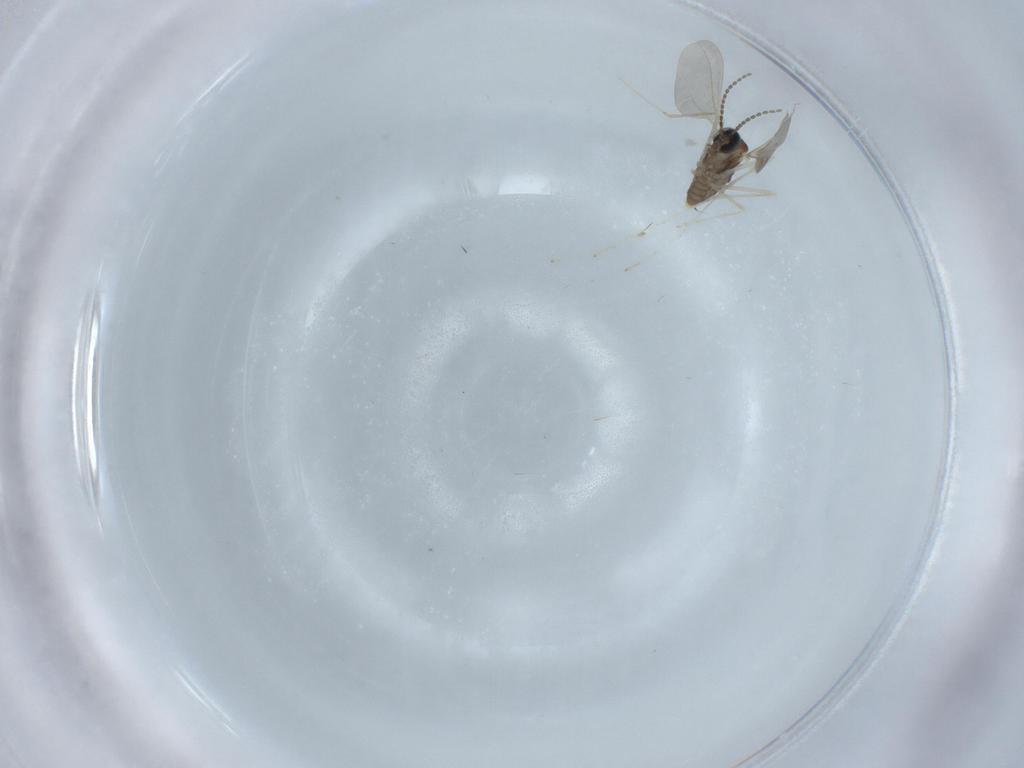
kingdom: Animalia
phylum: Arthropoda
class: Insecta
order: Diptera
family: Cecidomyiidae
